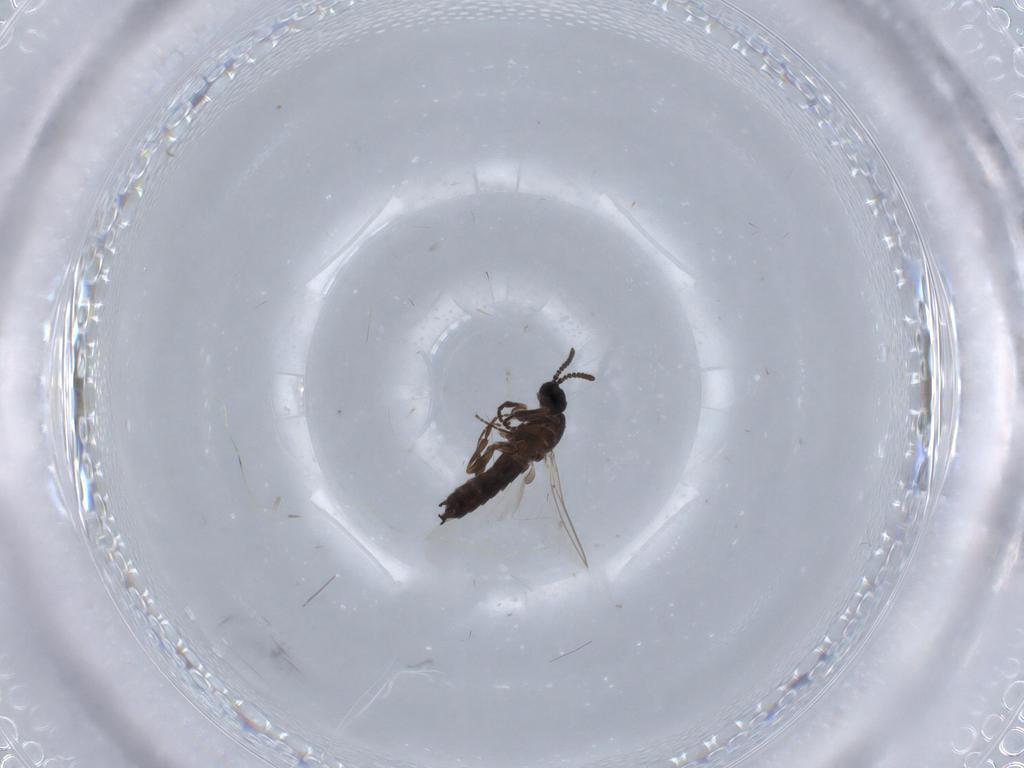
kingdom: Animalia
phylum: Arthropoda
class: Insecta
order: Diptera
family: Scatopsidae
